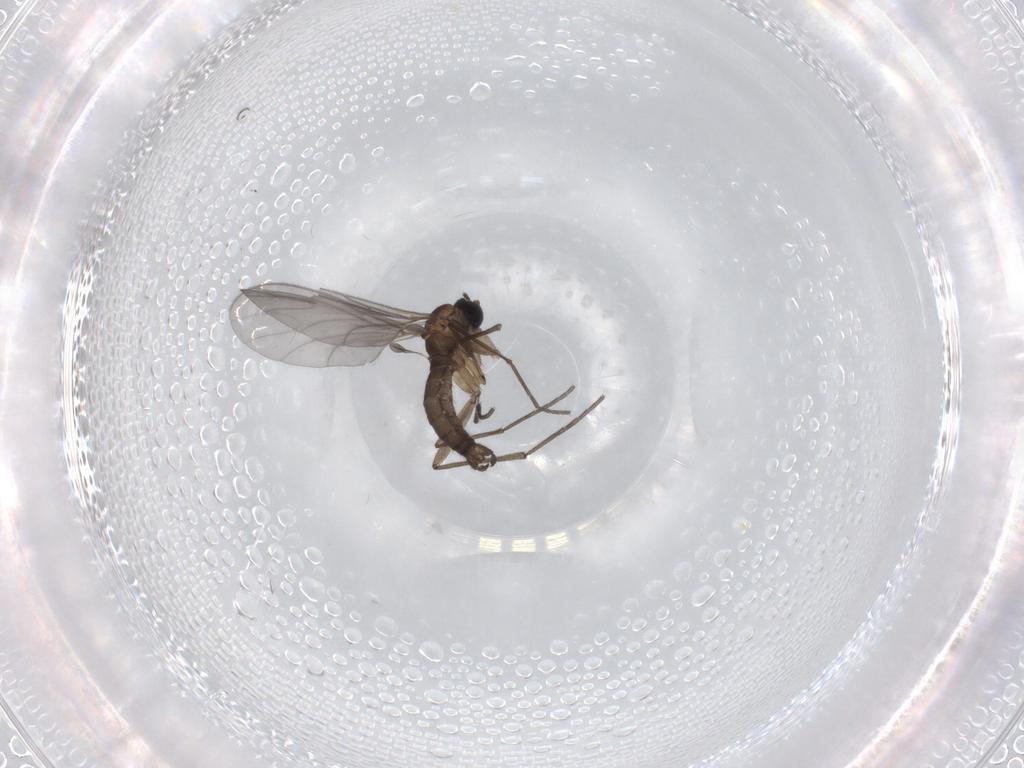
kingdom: Animalia
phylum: Arthropoda
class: Insecta
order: Diptera
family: Sciaridae
